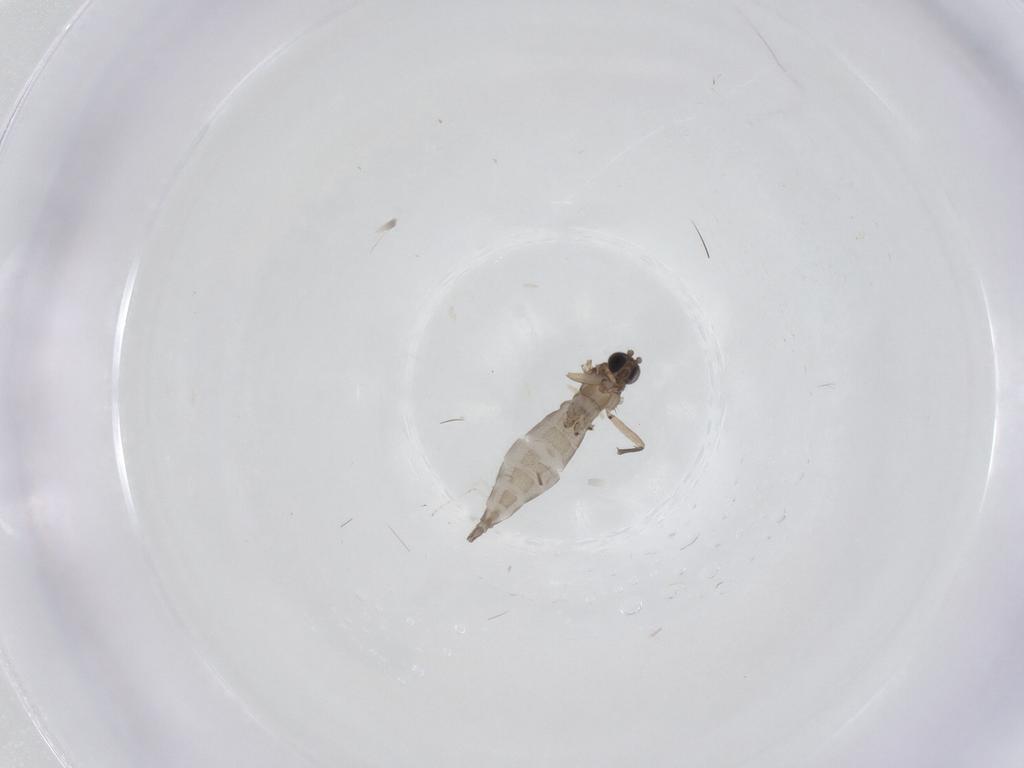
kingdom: Animalia
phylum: Arthropoda
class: Insecta
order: Diptera
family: Sciaridae
